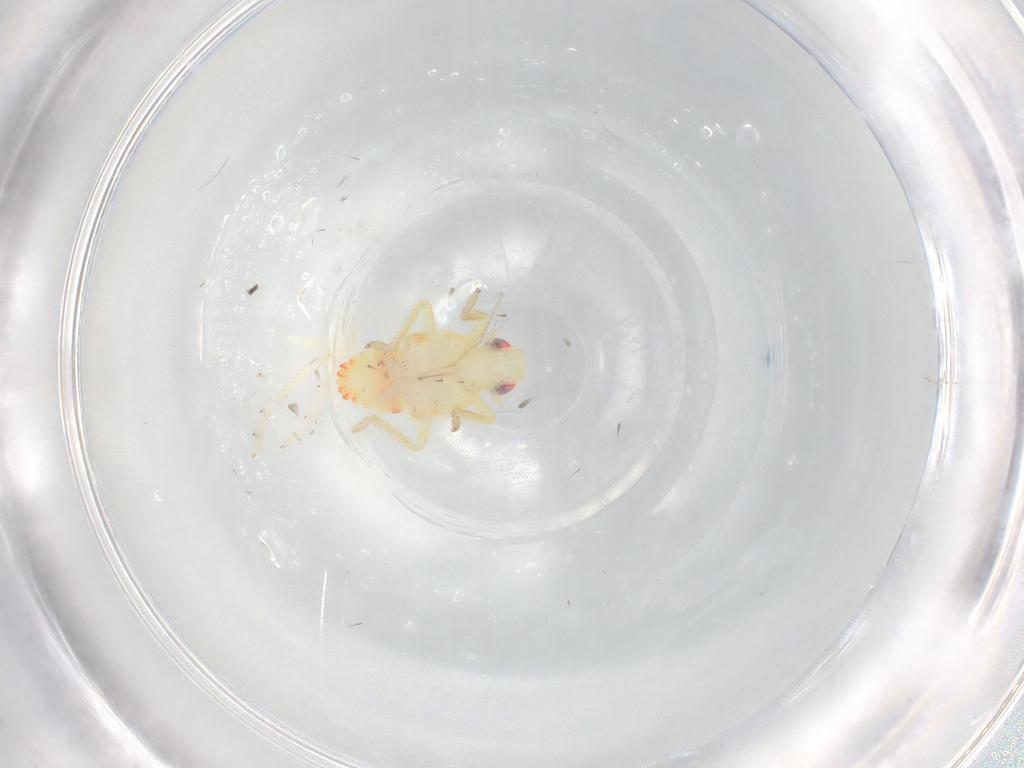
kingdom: Animalia
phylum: Arthropoda
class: Insecta
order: Hemiptera
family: Tropiduchidae
